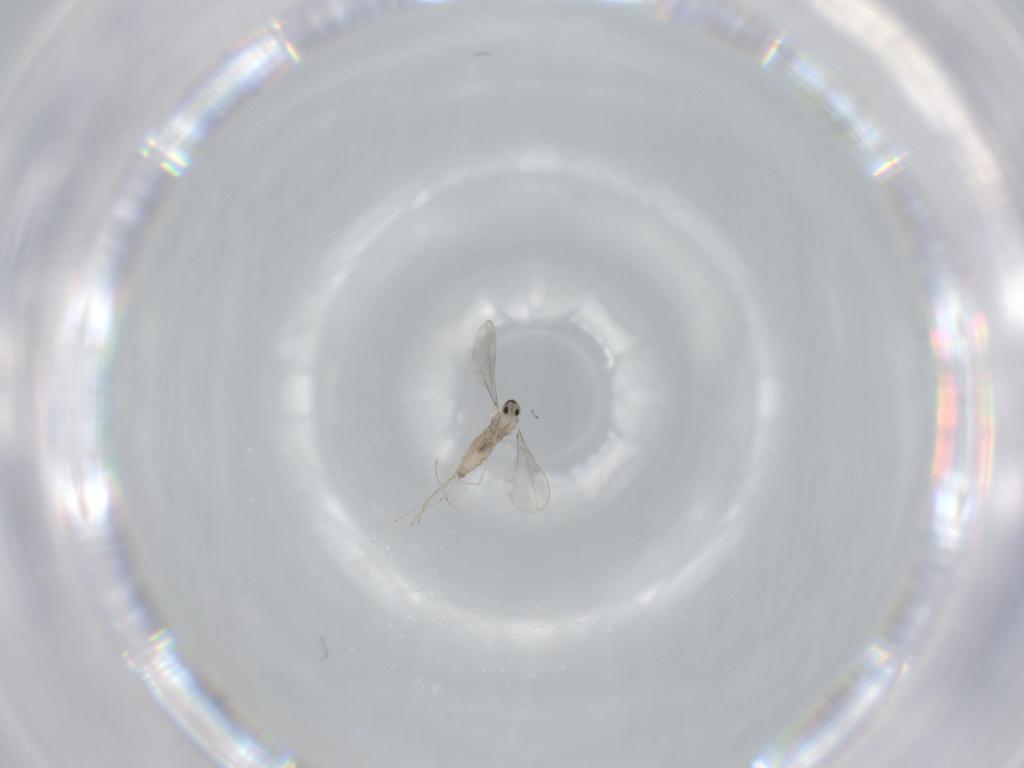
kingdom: Animalia
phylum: Arthropoda
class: Insecta
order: Diptera
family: Cecidomyiidae
